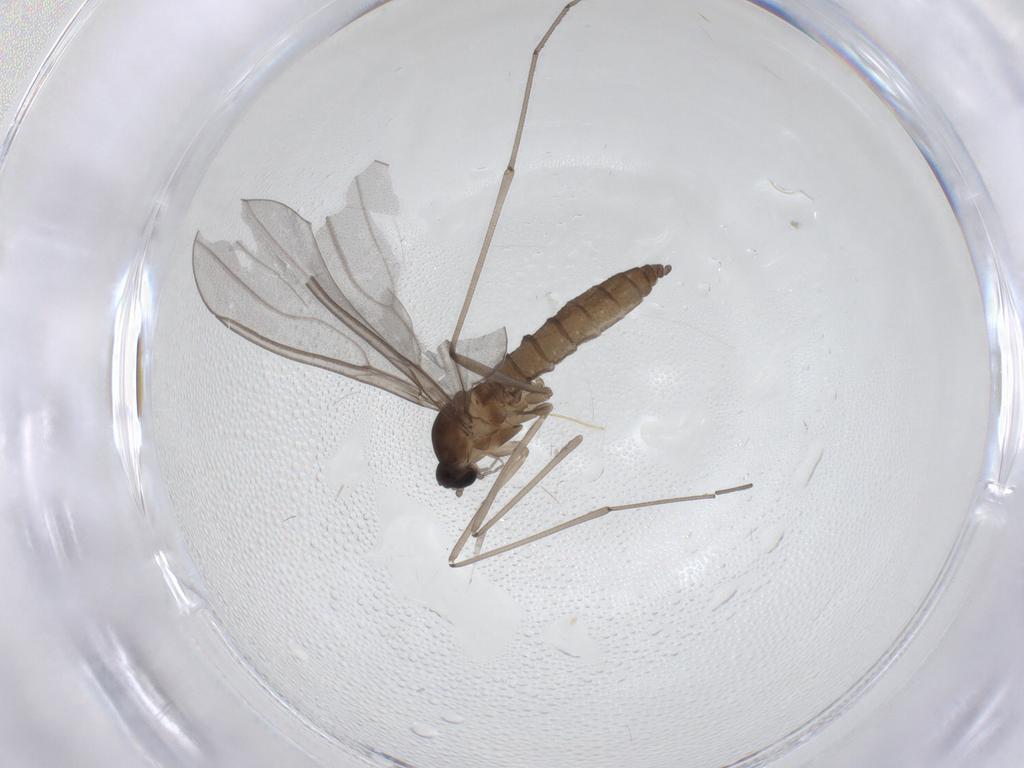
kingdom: Animalia
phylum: Arthropoda
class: Insecta
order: Diptera
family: Cecidomyiidae
